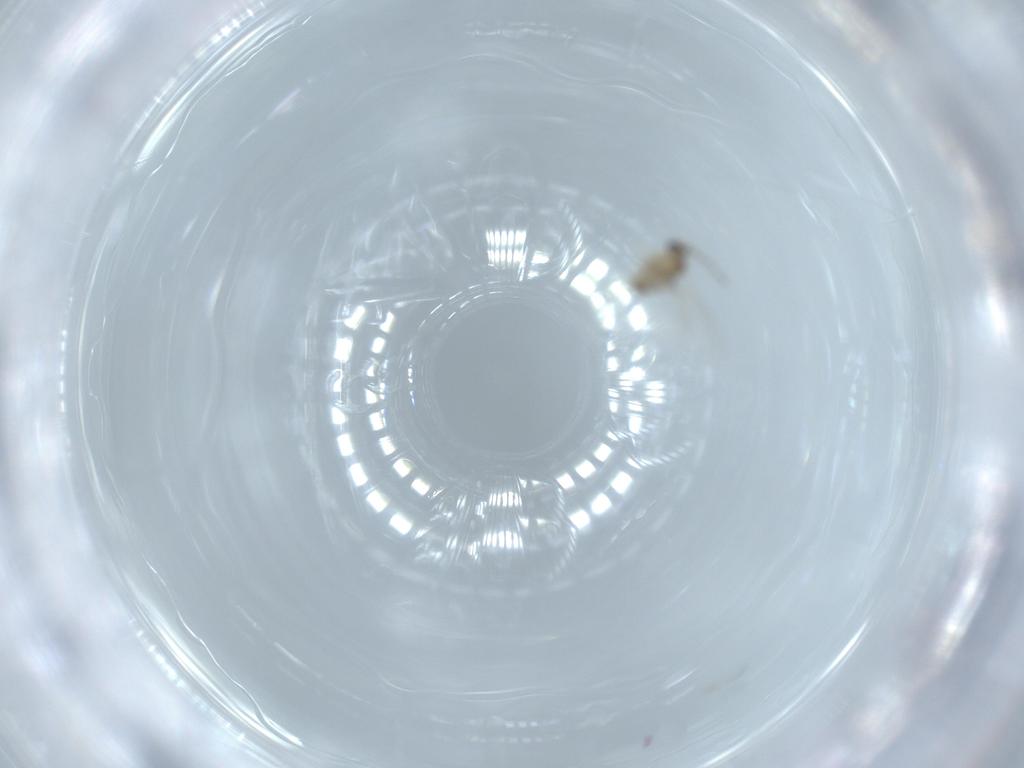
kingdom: Animalia
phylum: Arthropoda
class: Insecta
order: Diptera
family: Cecidomyiidae
